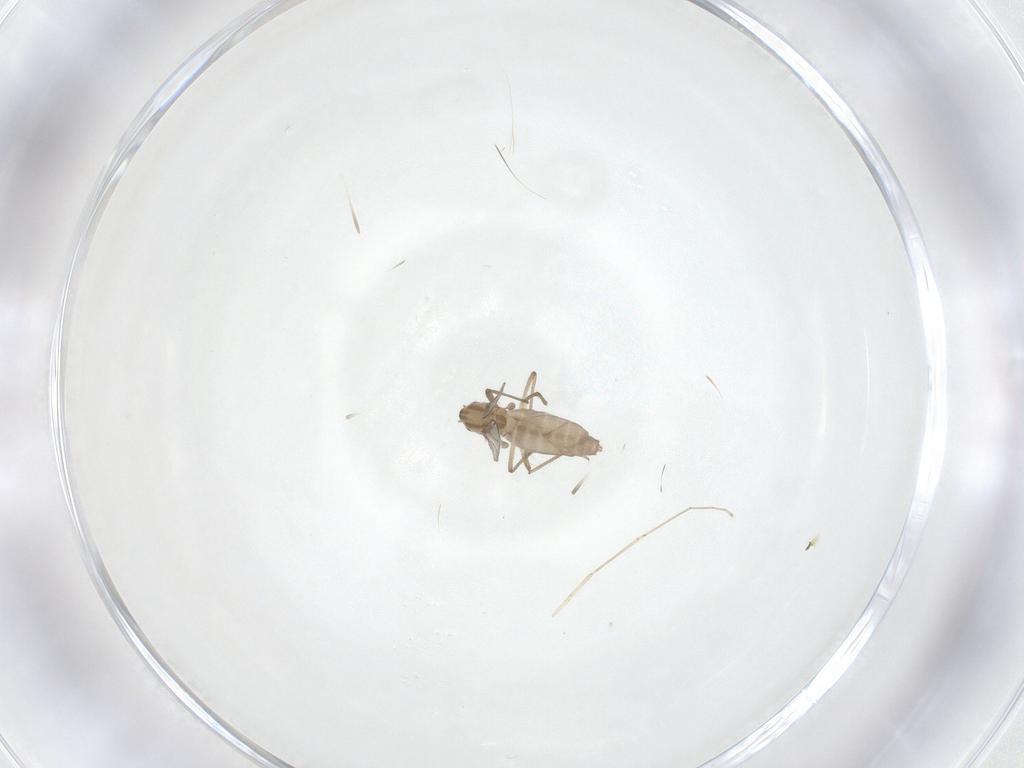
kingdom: Animalia
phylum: Arthropoda
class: Insecta
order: Diptera
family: Chironomidae
